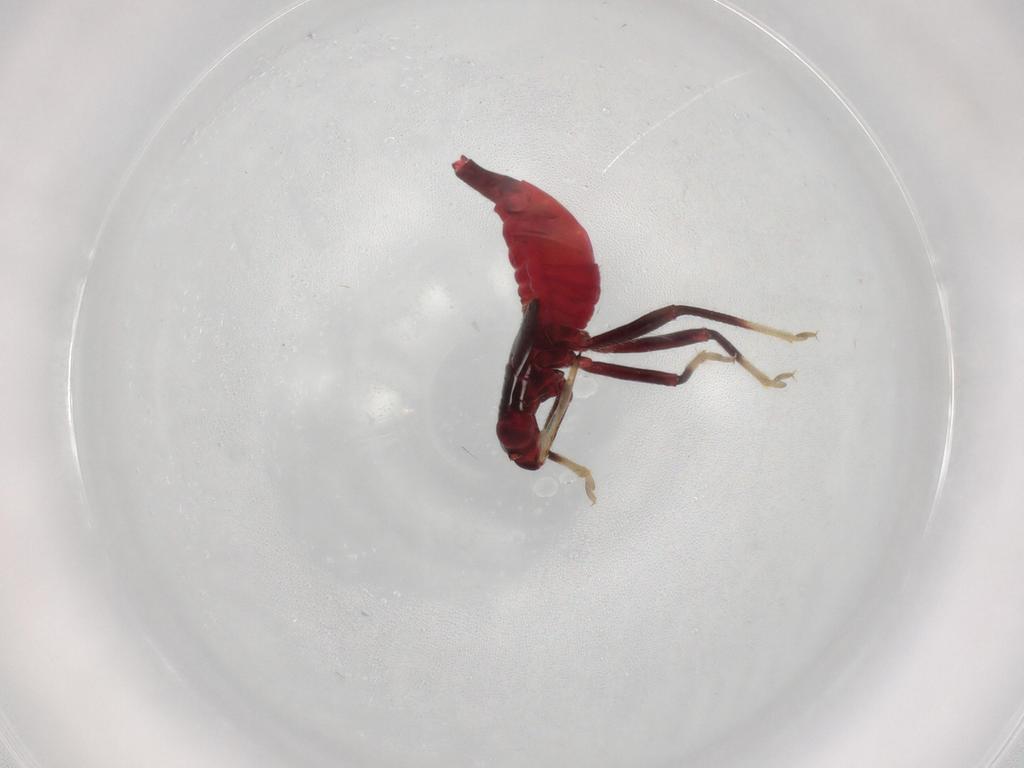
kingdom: Animalia
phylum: Arthropoda
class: Insecta
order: Hemiptera
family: Miridae
